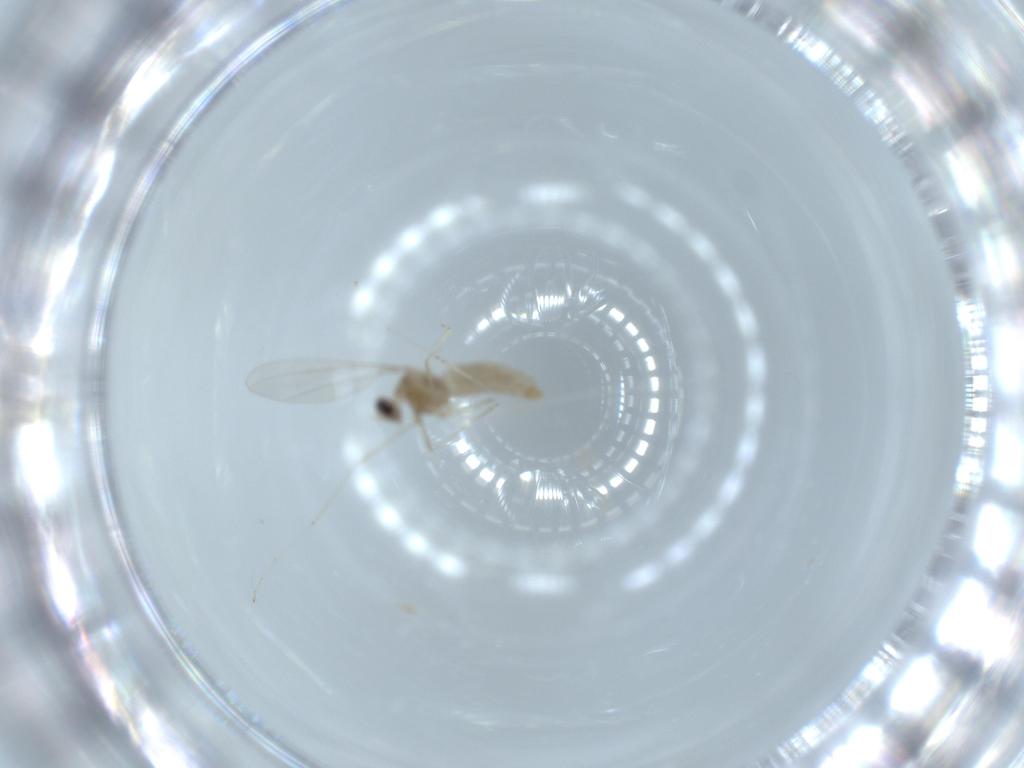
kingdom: Animalia
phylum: Arthropoda
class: Insecta
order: Diptera
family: Cecidomyiidae
